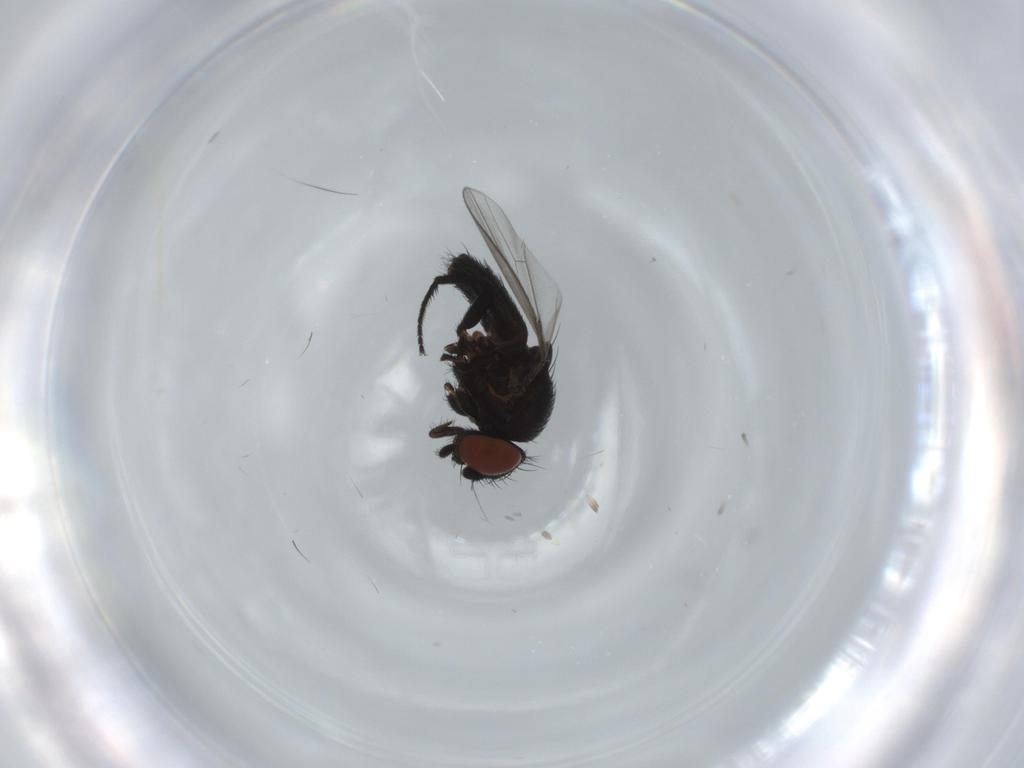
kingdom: Animalia
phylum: Arthropoda
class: Insecta
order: Diptera
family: Milichiidae
